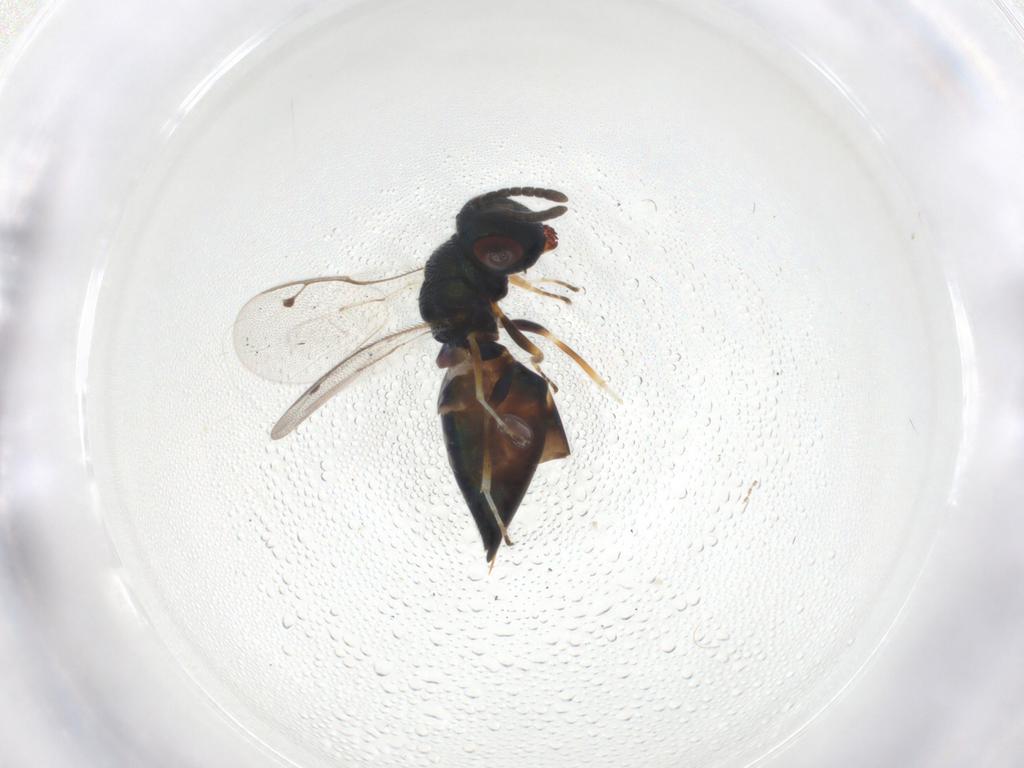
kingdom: Animalia
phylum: Arthropoda
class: Insecta
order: Hymenoptera
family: Pteromalidae
